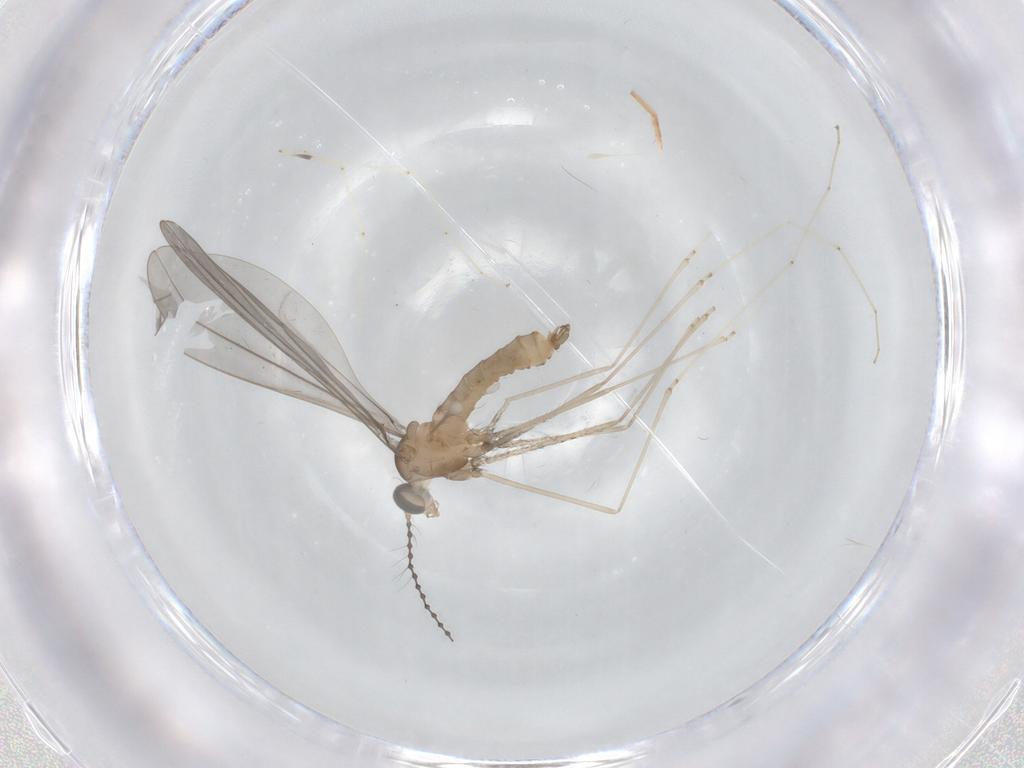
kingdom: Animalia
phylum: Arthropoda
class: Insecta
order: Diptera
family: Cecidomyiidae
